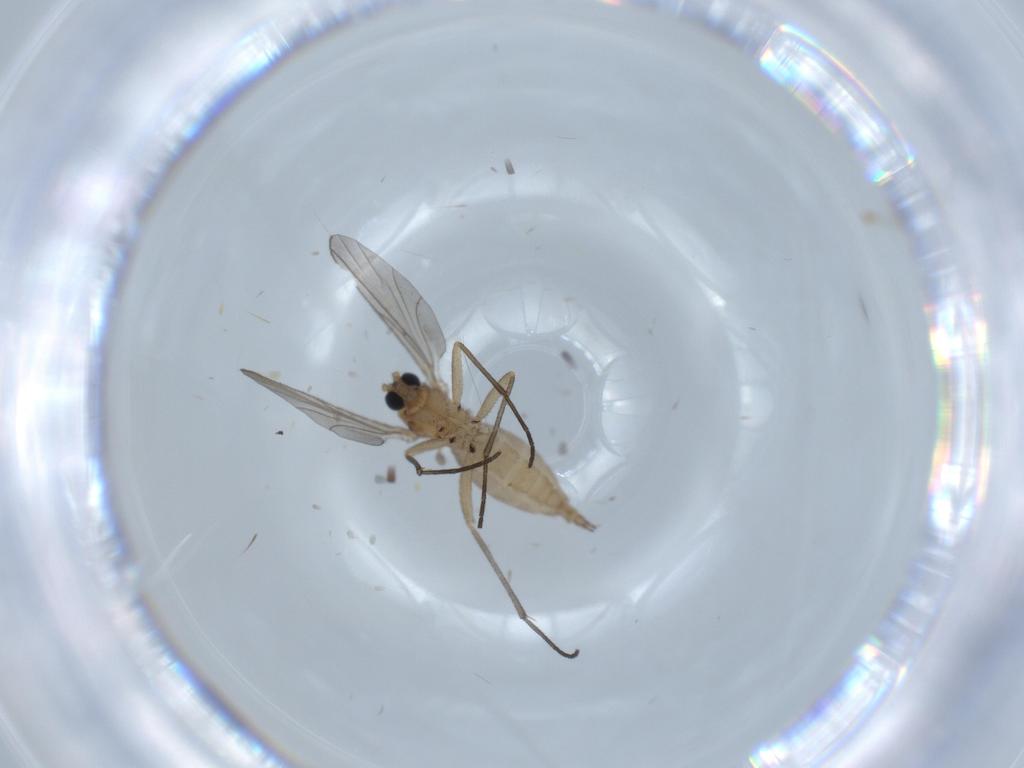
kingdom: Animalia
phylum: Arthropoda
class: Insecta
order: Diptera
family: Sciaridae
